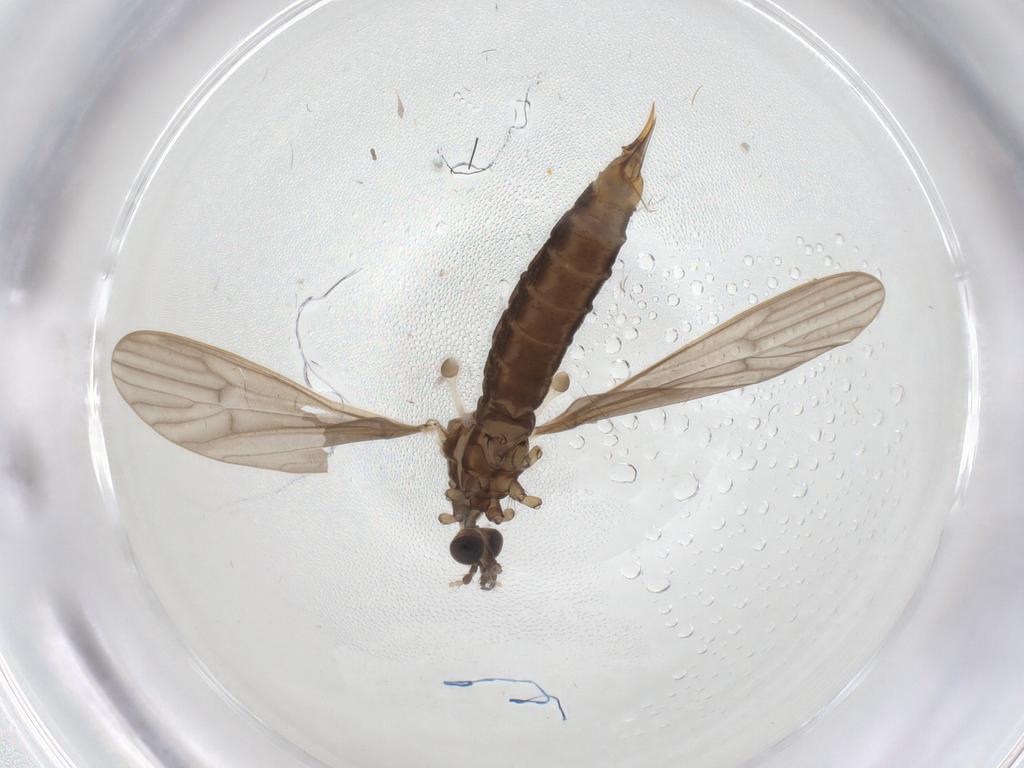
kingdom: Animalia
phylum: Arthropoda
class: Insecta
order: Diptera
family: Limoniidae
